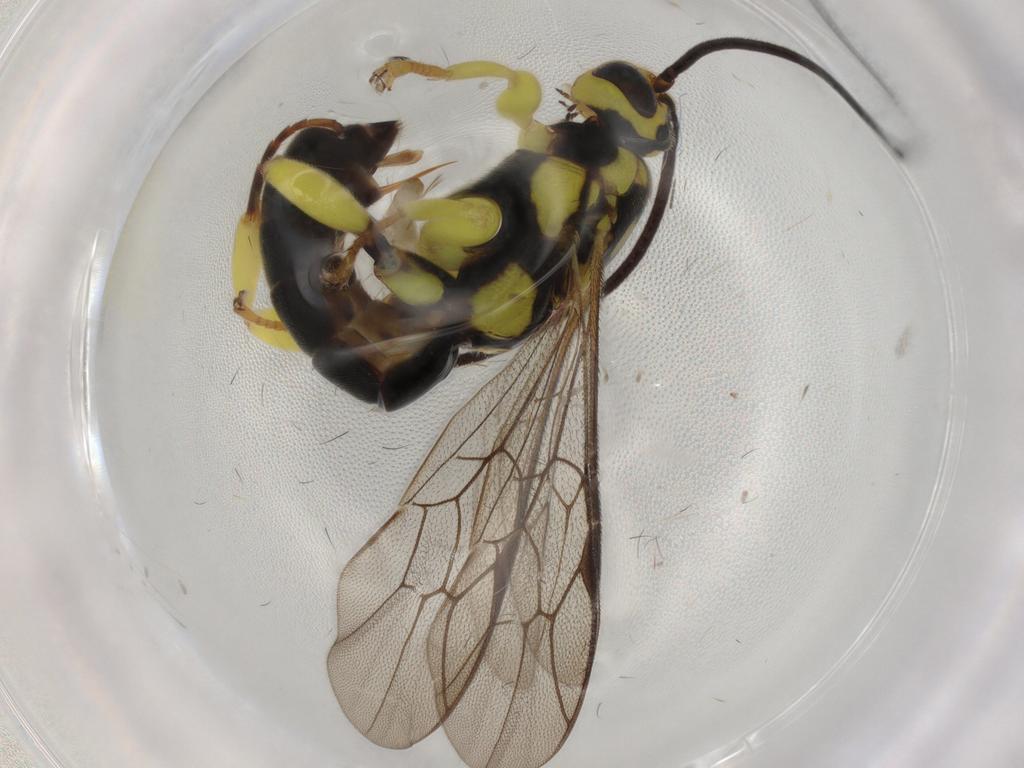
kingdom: Animalia
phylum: Arthropoda
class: Insecta
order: Hymenoptera
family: Ichneumonidae
